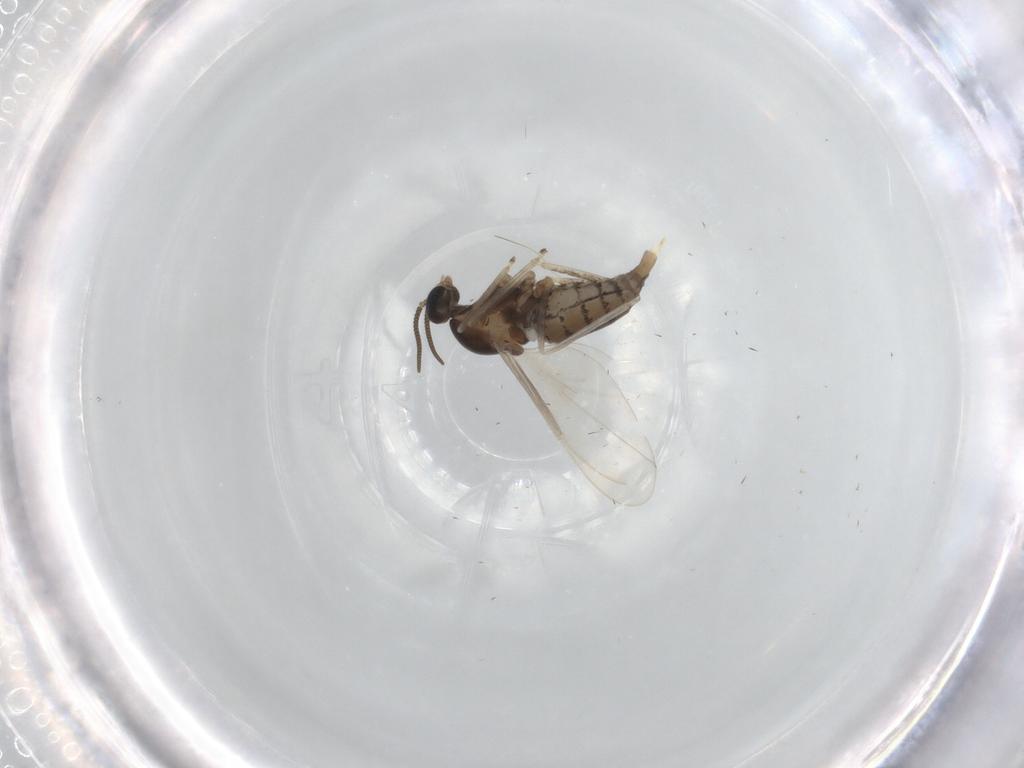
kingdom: Animalia
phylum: Arthropoda
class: Insecta
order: Diptera
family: Cecidomyiidae
